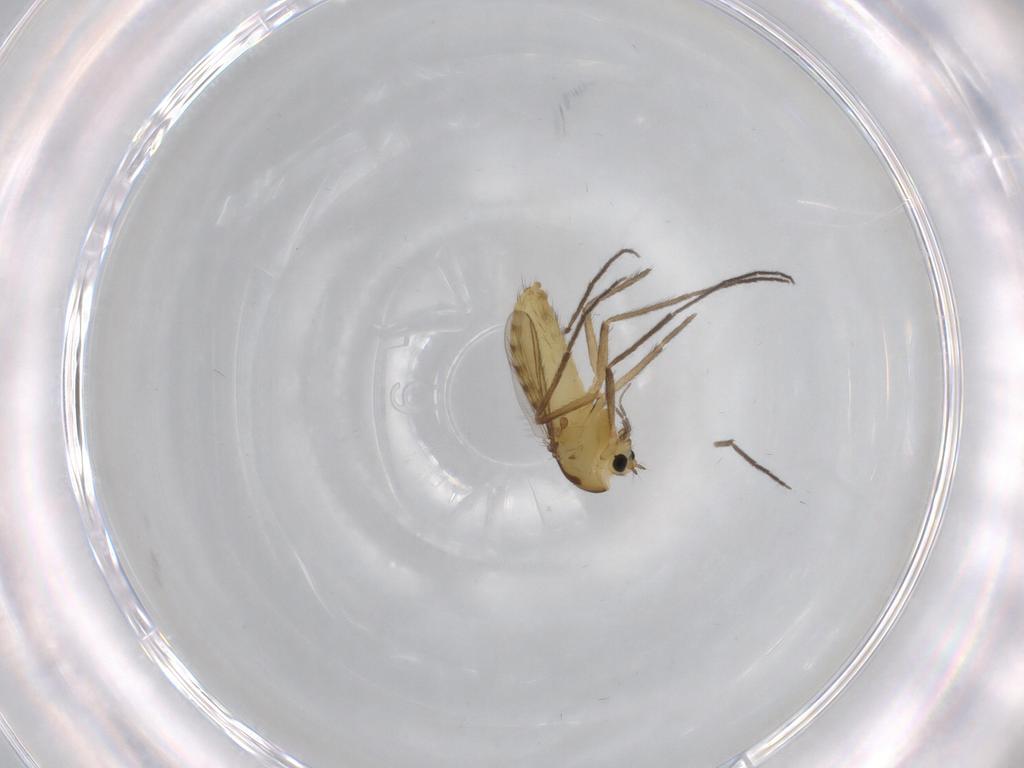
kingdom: Animalia
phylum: Arthropoda
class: Insecta
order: Diptera
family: Chironomidae
